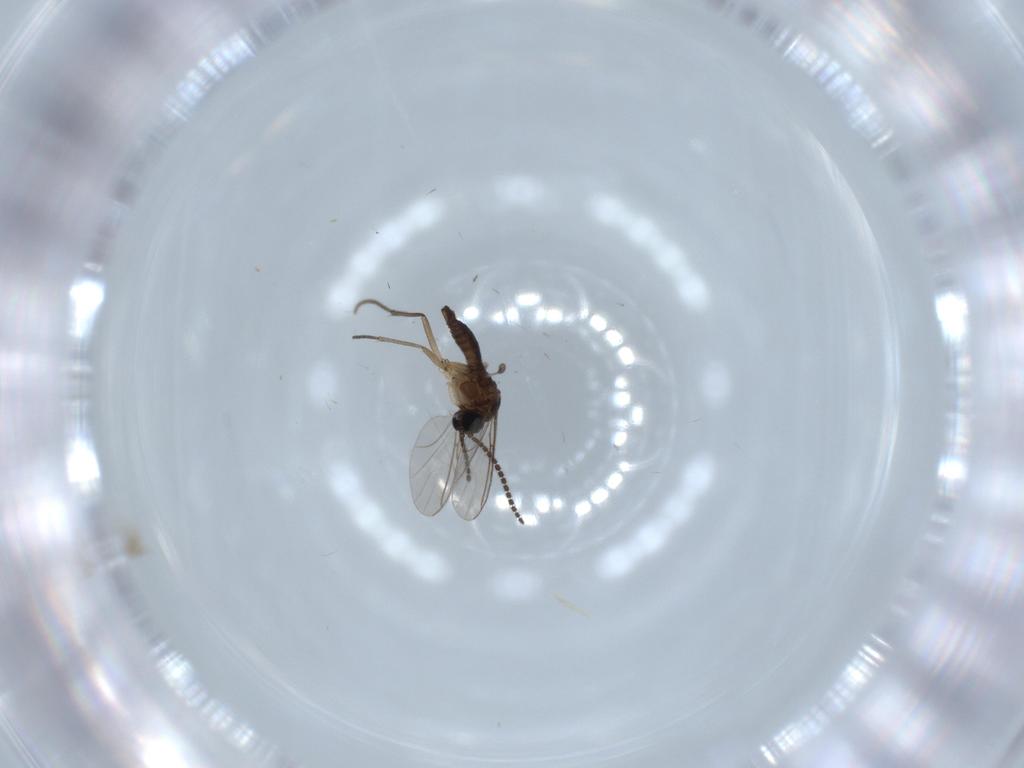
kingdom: Animalia
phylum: Arthropoda
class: Insecta
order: Diptera
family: Sciaridae
